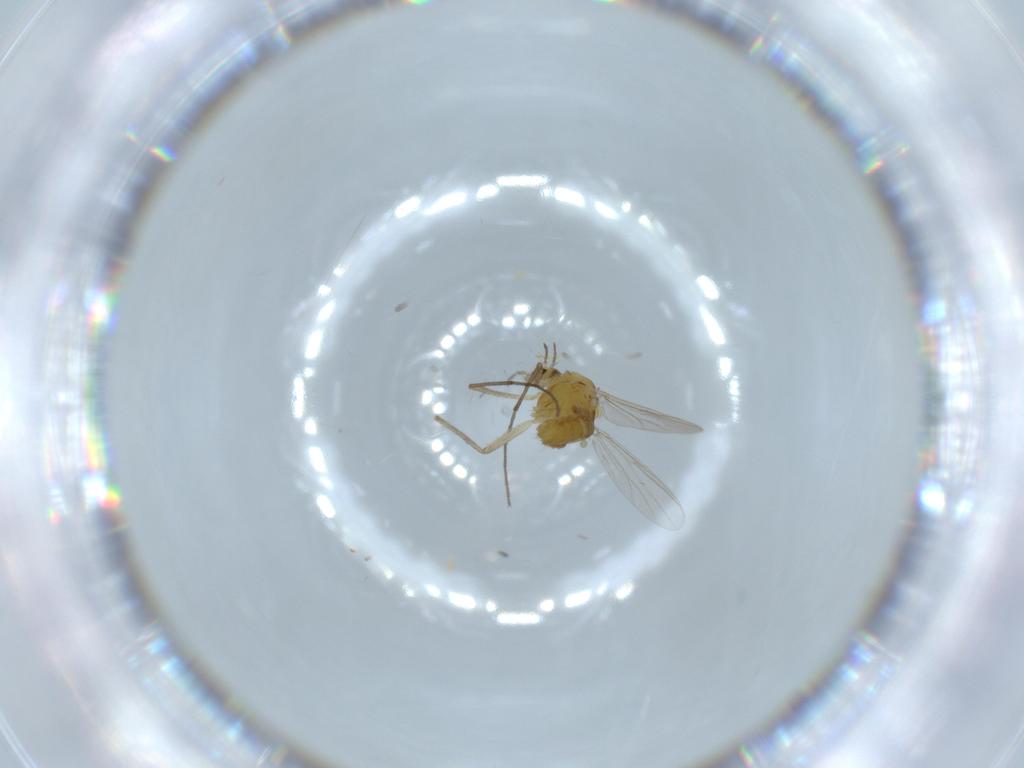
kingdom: Animalia
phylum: Arthropoda
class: Insecta
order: Diptera
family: Chironomidae
